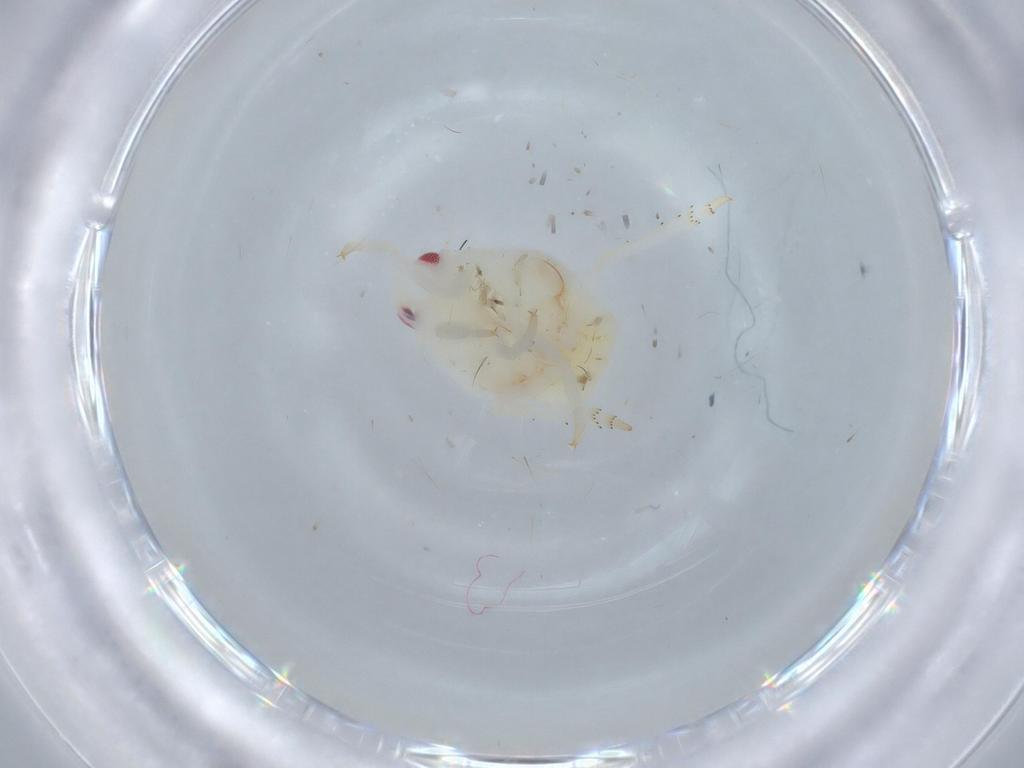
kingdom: Animalia
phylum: Arthropoda
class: Insecta
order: Hemiptera
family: Flatidae
